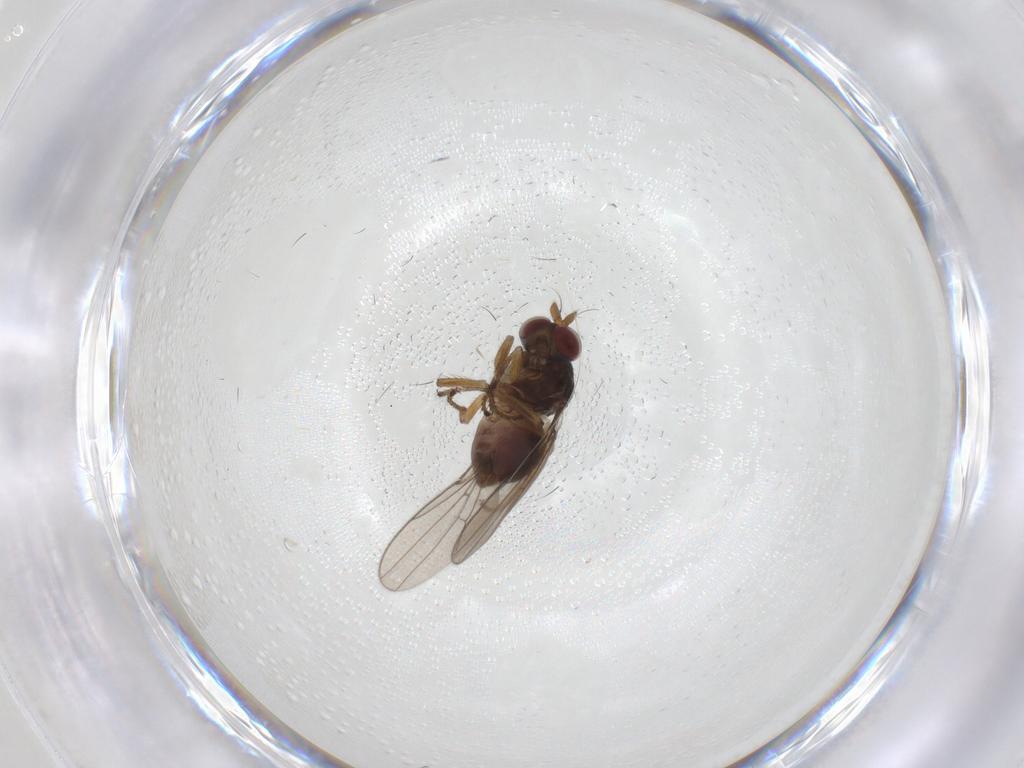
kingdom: Animalia
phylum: Arthropoda
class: Insecta
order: Diptera
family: Ephydridae
